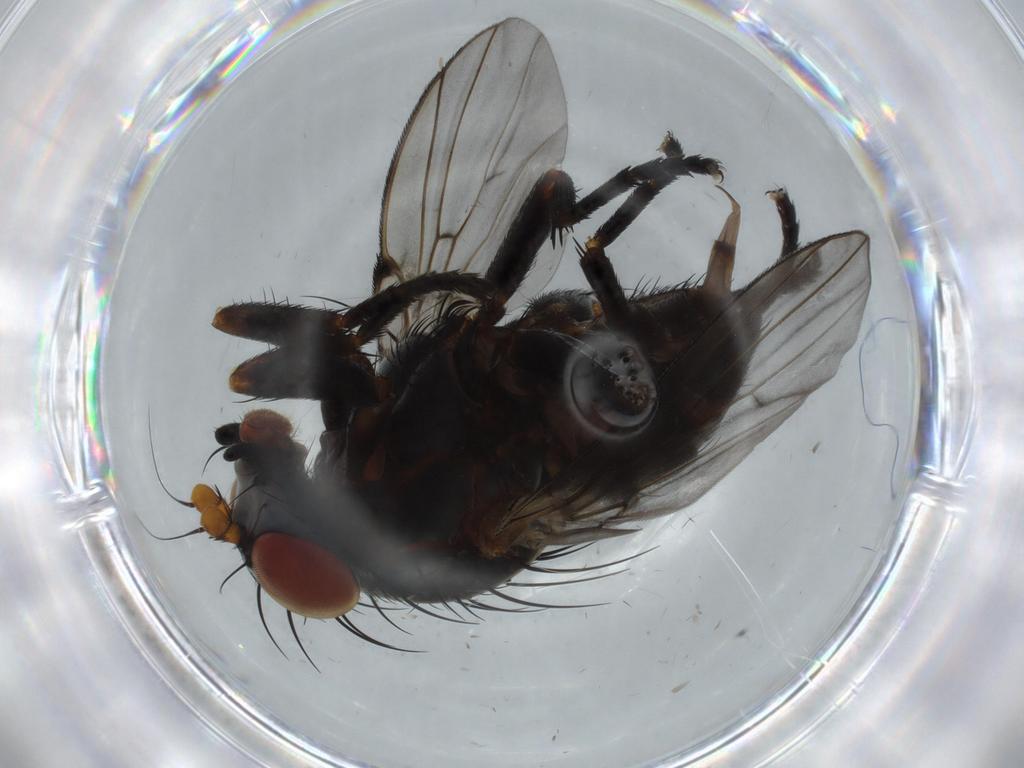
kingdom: Animalia
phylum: Arthropoda
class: Insecta
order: Diptera
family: Odiniidae
